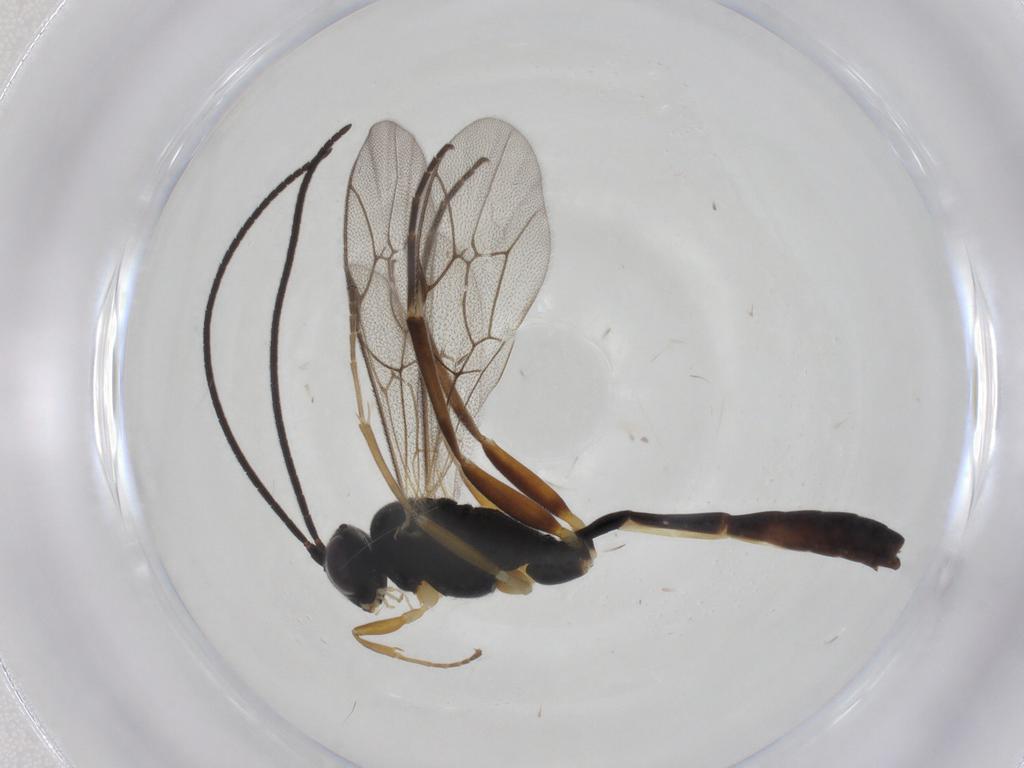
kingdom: Animalia
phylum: Arthropoda
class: Insecta
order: Hymenoptera
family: Ichneumonidae
